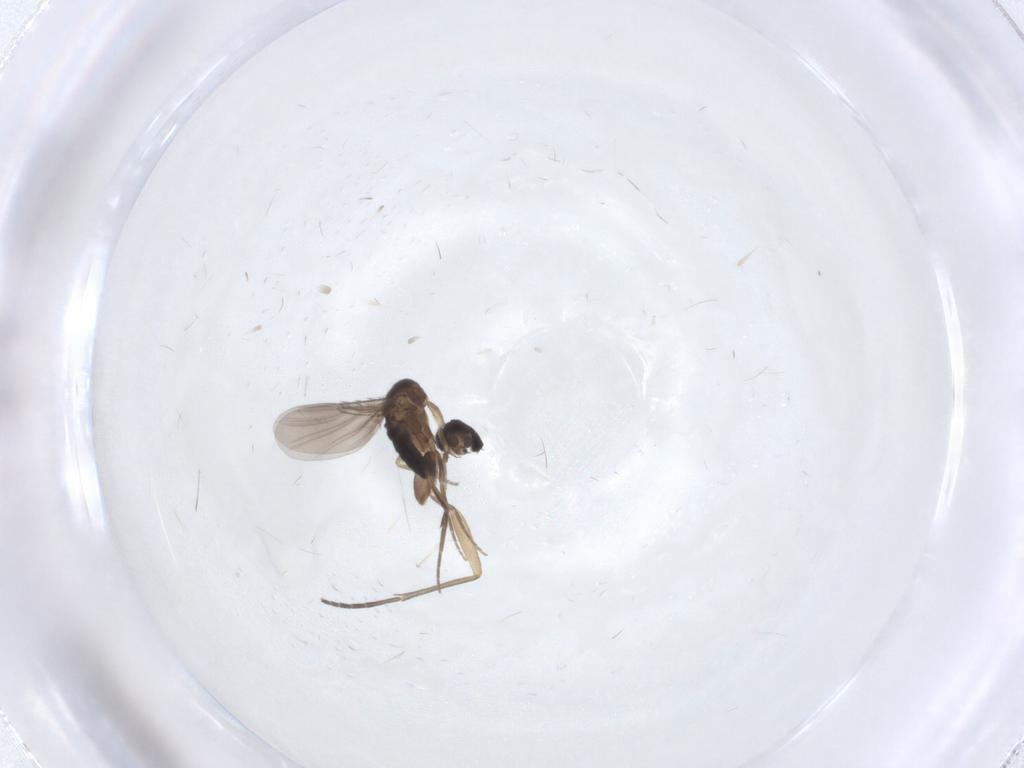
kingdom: Animalia
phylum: Arthropoda
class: Insecta
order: Diptera
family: Phoridae
